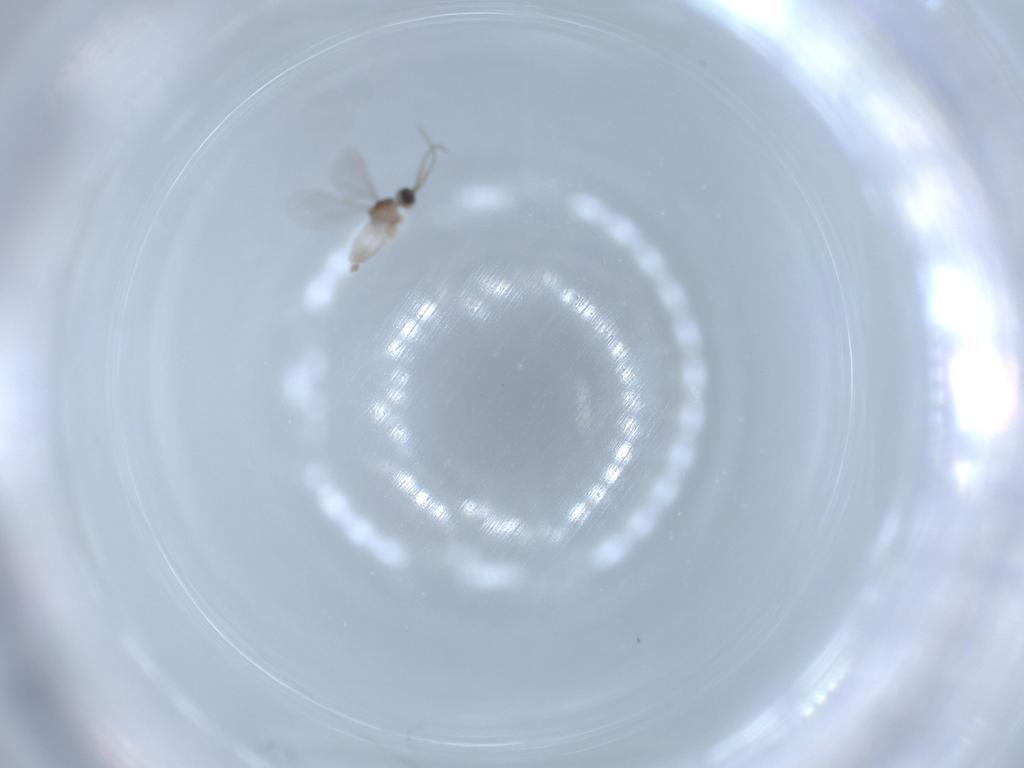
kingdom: Animalia
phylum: Arthropoda
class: Insecta
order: Diptera
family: Cecidomyiidae
